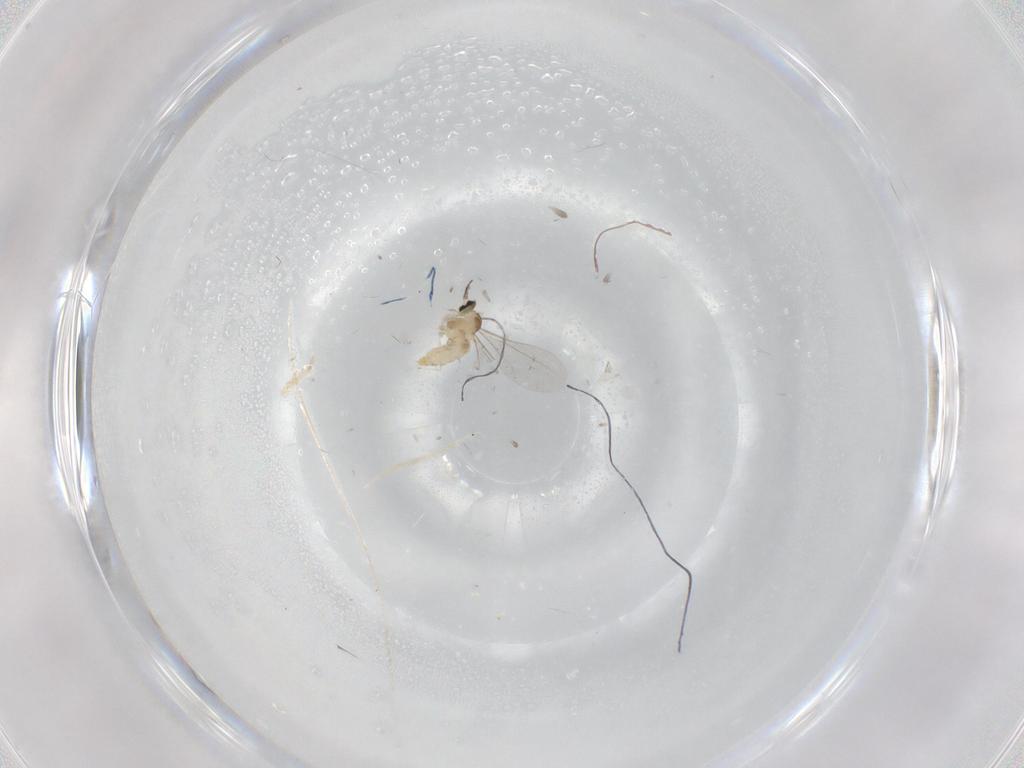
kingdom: Animalia
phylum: Arthropoda
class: Insecta
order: Diptera
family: Cecidomyiidae
